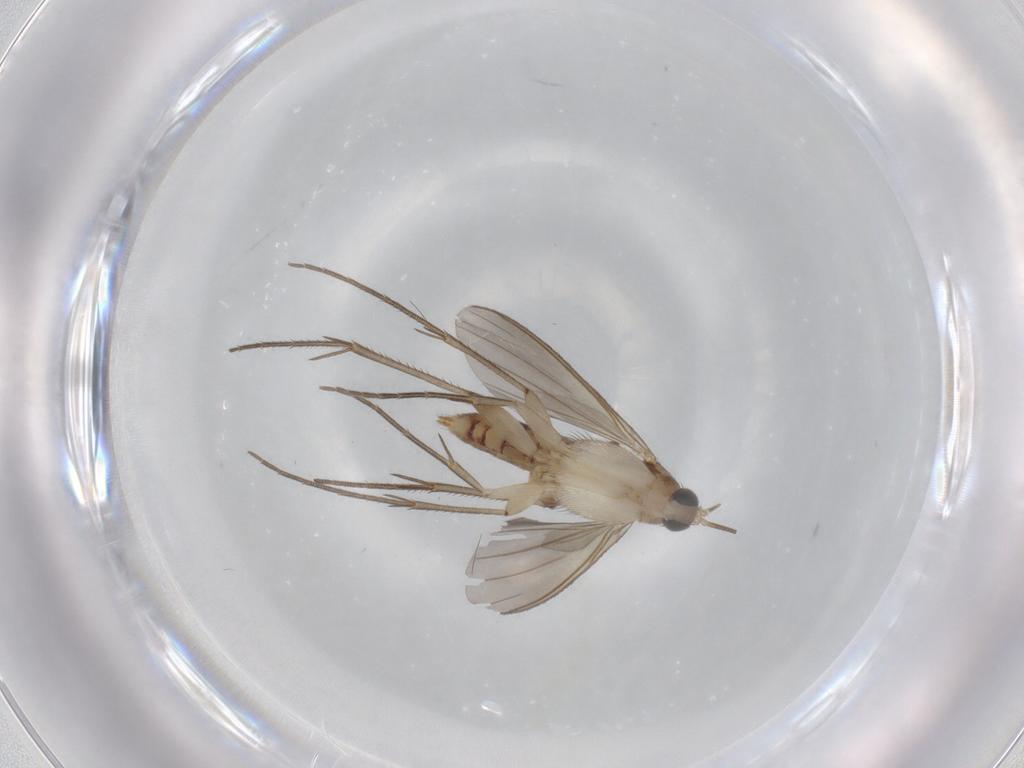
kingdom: Animalia
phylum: Arthropoda
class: Insecta
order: Diptera
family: Mycetophilidae
